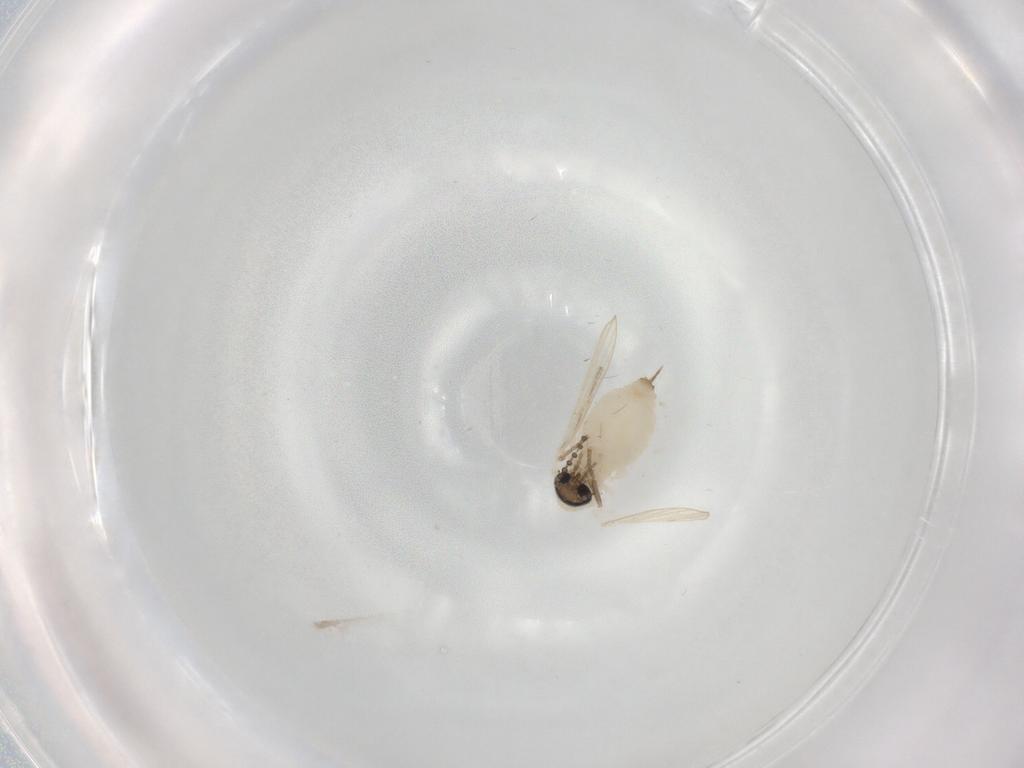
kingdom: Animalia
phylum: Arthropoda
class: Insecta
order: Diptera
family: Psychodidae
